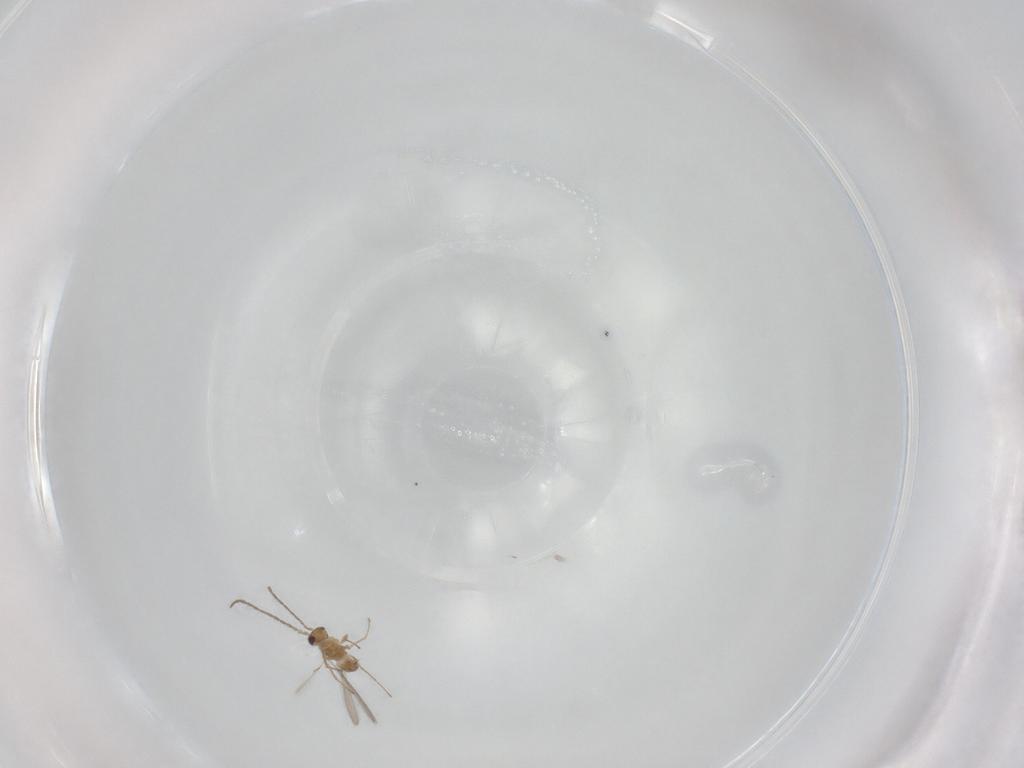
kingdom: Animalia
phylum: Arthropoda
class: Insecta
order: Hymenoptera
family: Mymaridae
